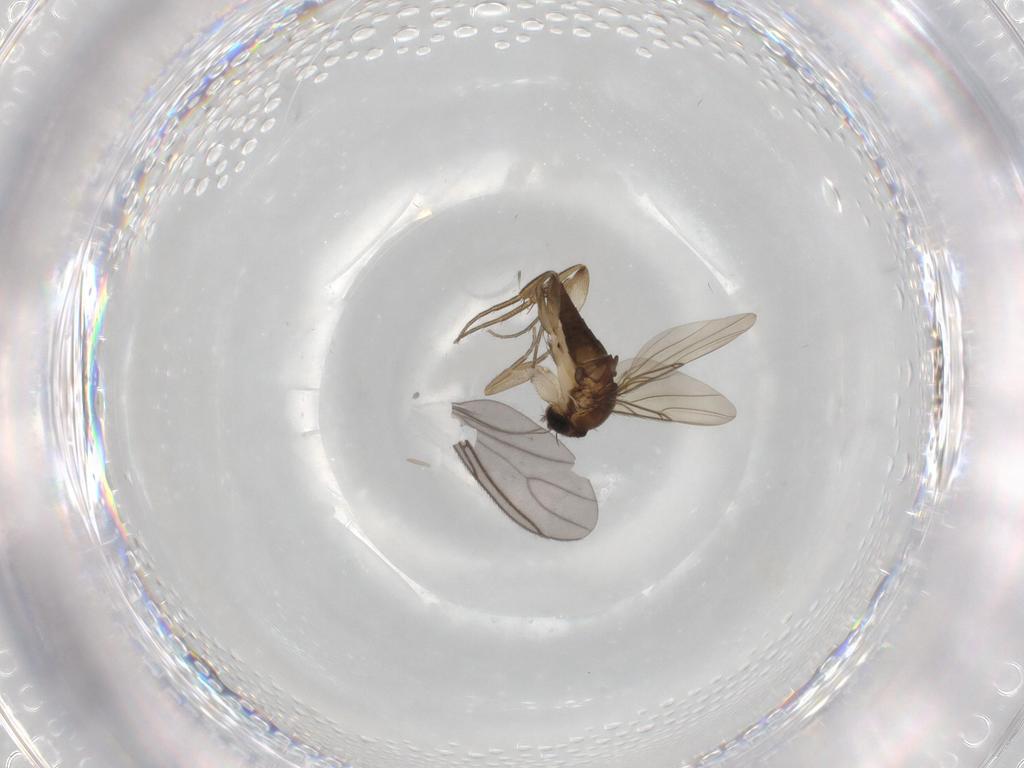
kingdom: Animalia
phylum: Arthropoda
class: Insecta
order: Diptera
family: Phoridae
